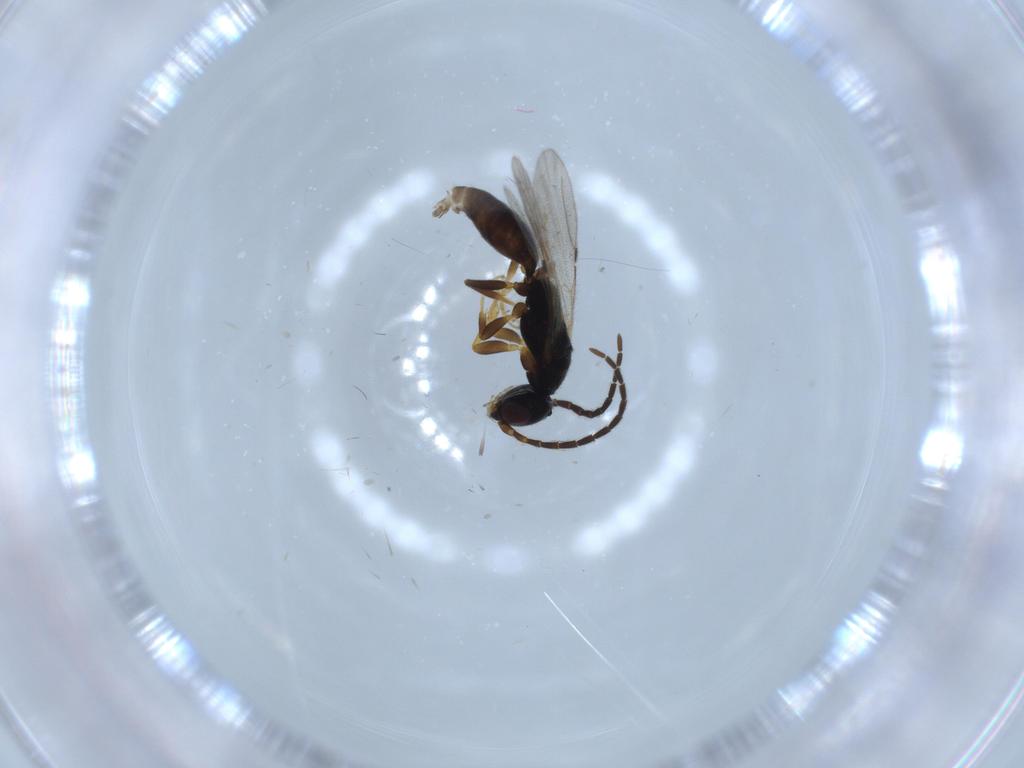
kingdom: Animalia
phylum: Arthropoda
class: Insecta
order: Hymenoptera
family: Bethylidae
